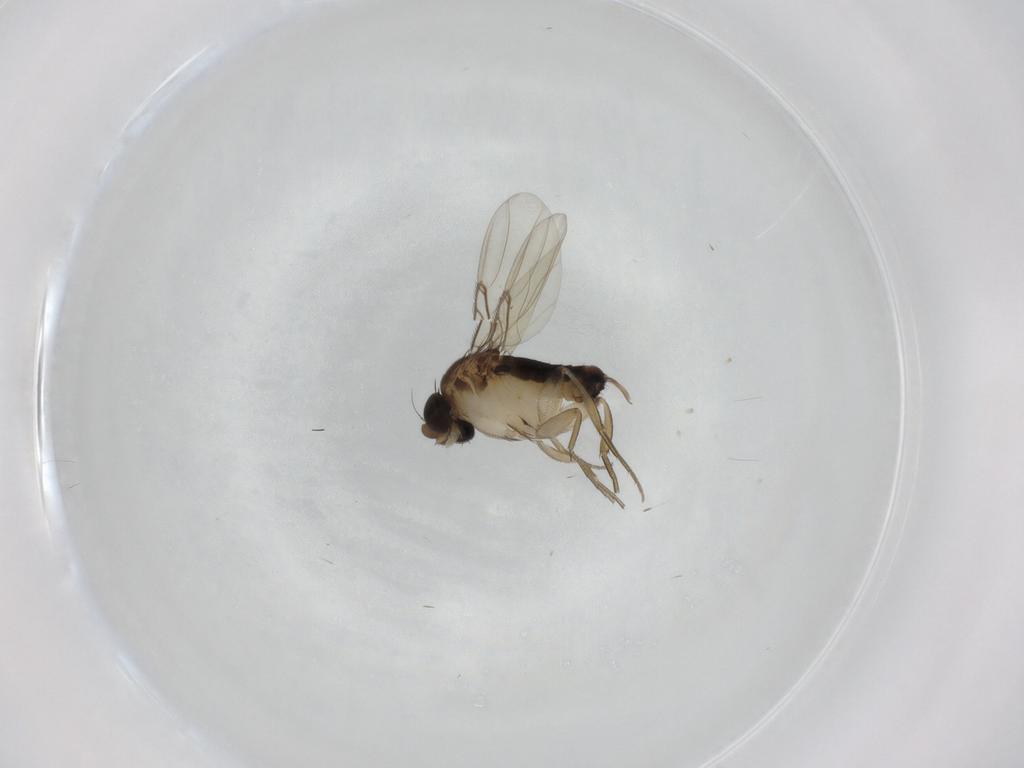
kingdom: Animalia
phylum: Arthropoda
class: Insecta
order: Diptera
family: Phoridae
